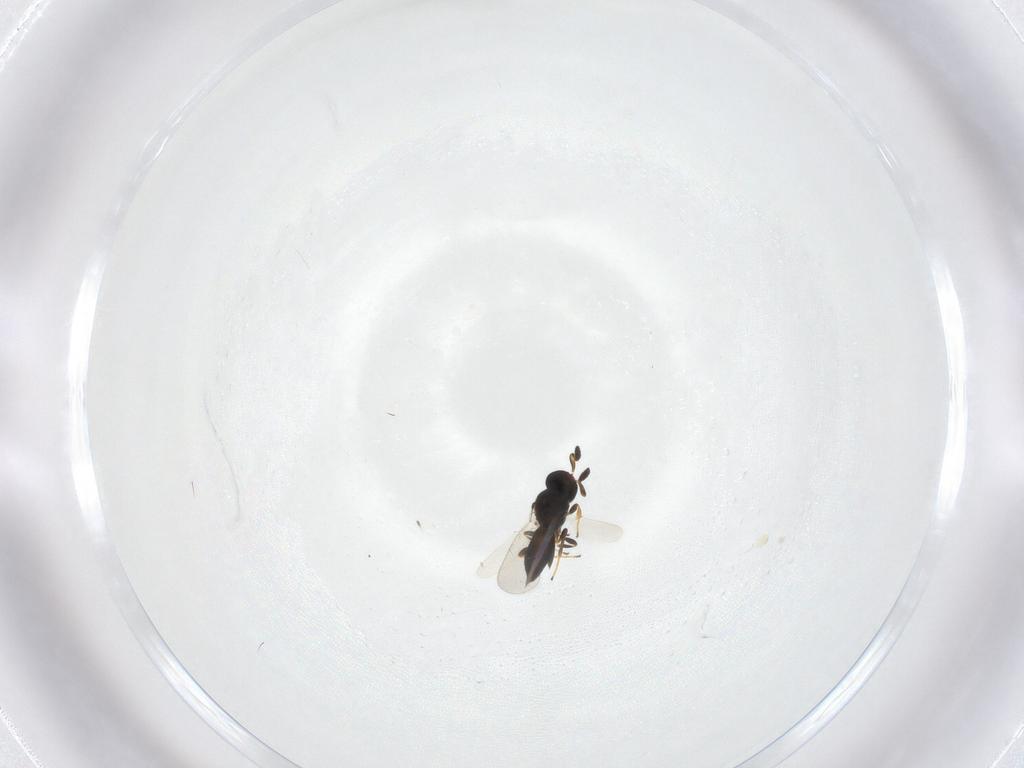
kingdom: Animalia
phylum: Arthropoda
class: Insecta
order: Hymenoptera
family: Platygastridae
